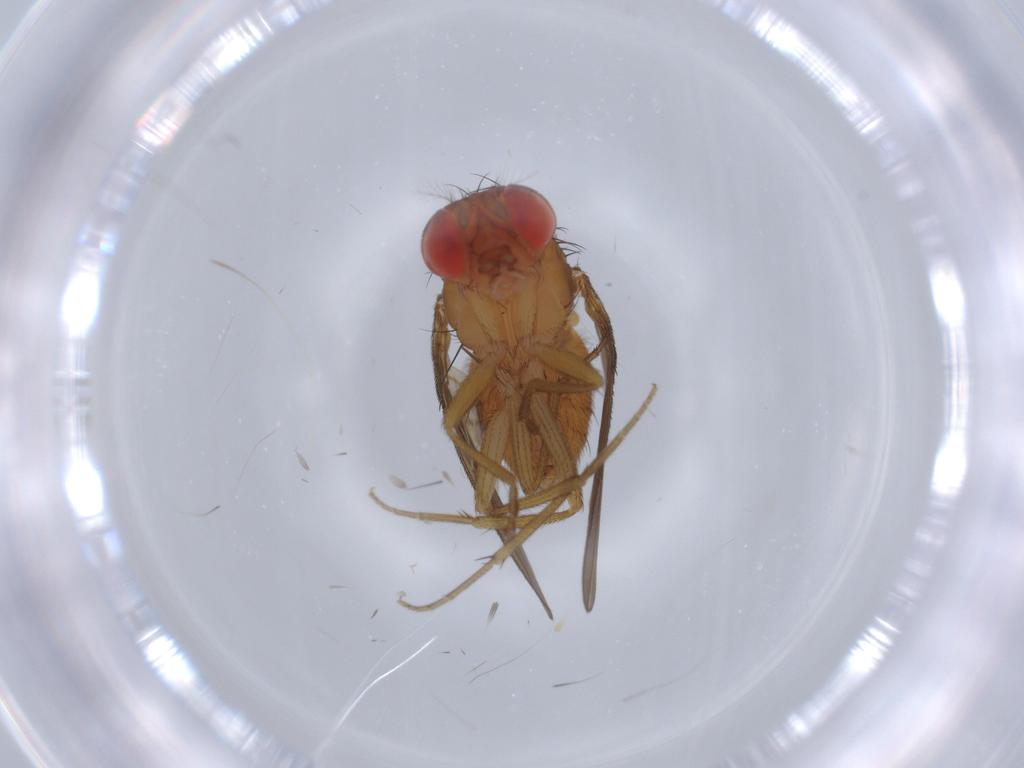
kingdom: Animalia
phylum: Arthropoda
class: Insecta
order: Diptera
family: Drosophilidae
